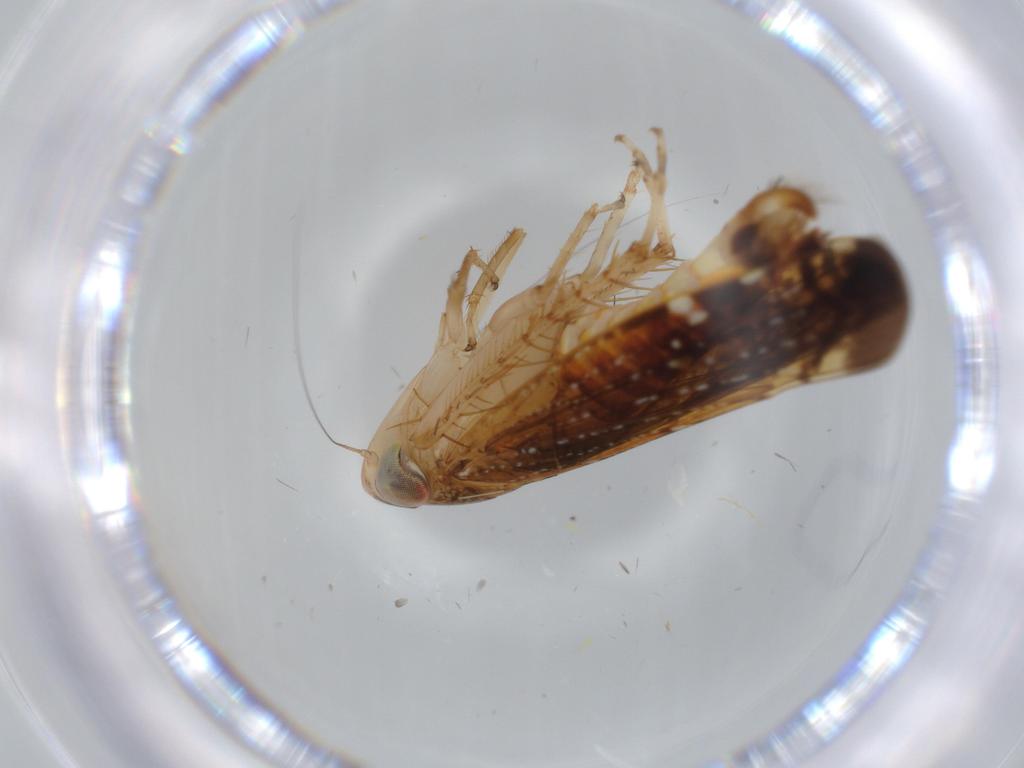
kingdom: Animalia
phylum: Arthropoda
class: Insecta
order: Hemiptera
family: Cicadellidae
